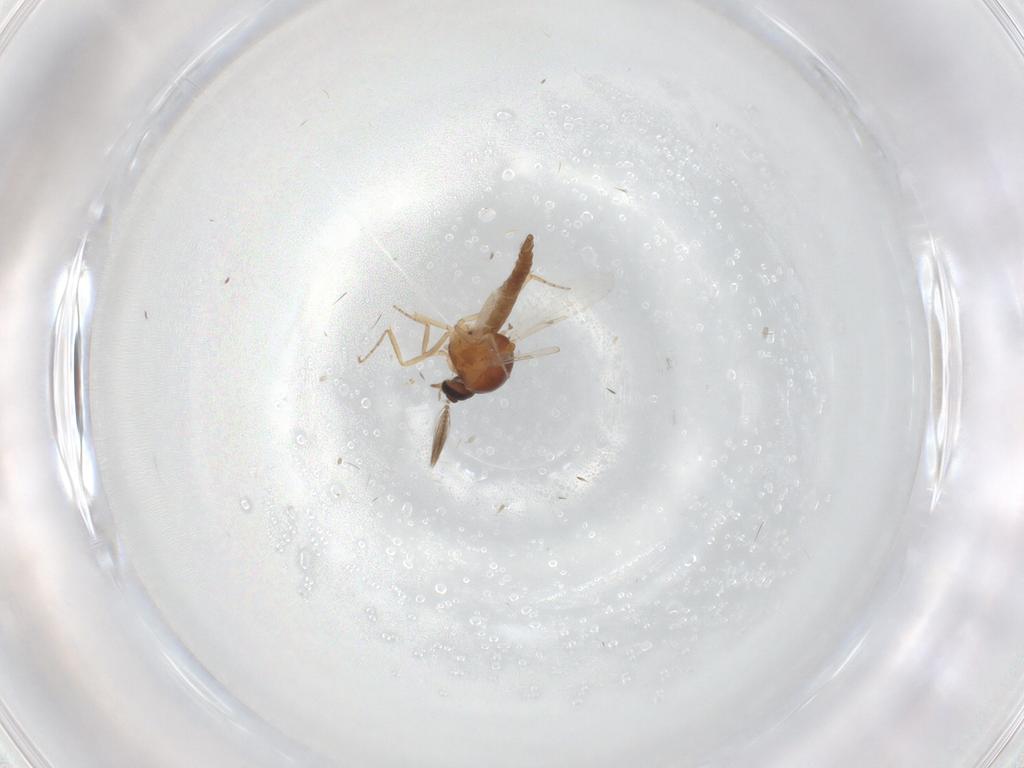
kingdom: Animalia
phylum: Arthropoda
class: Insecta
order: Diptera
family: Ceratopogonidae
